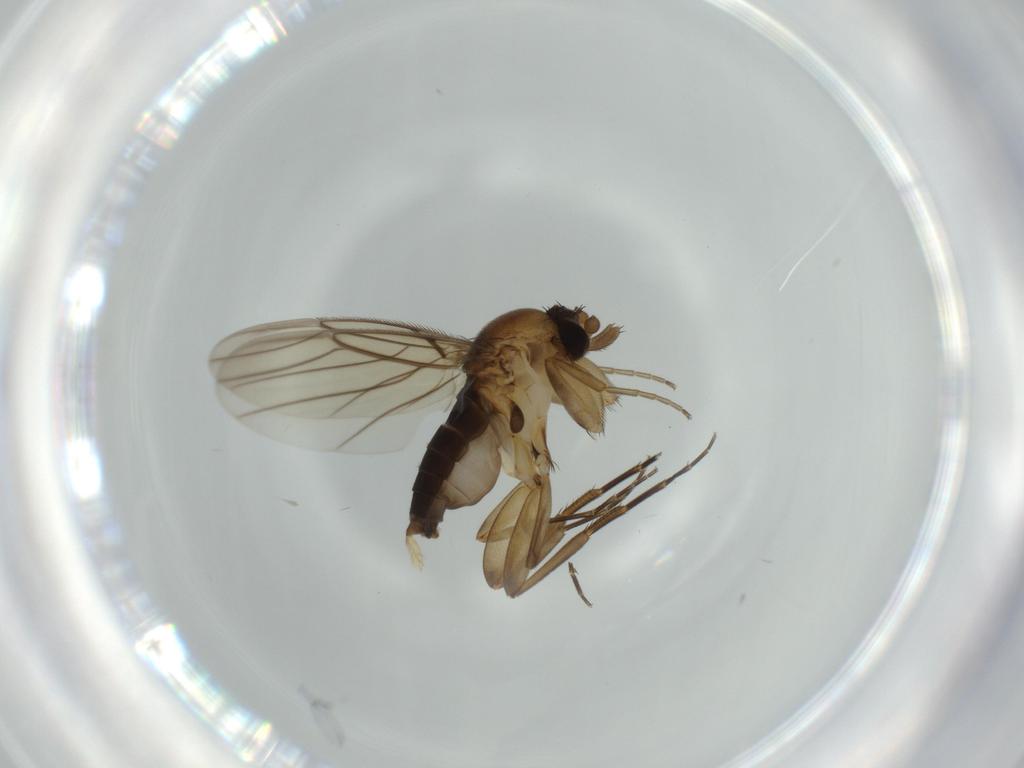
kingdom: Animalia
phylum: Arthropoda
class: Insecta
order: Diptera
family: Phoridae
